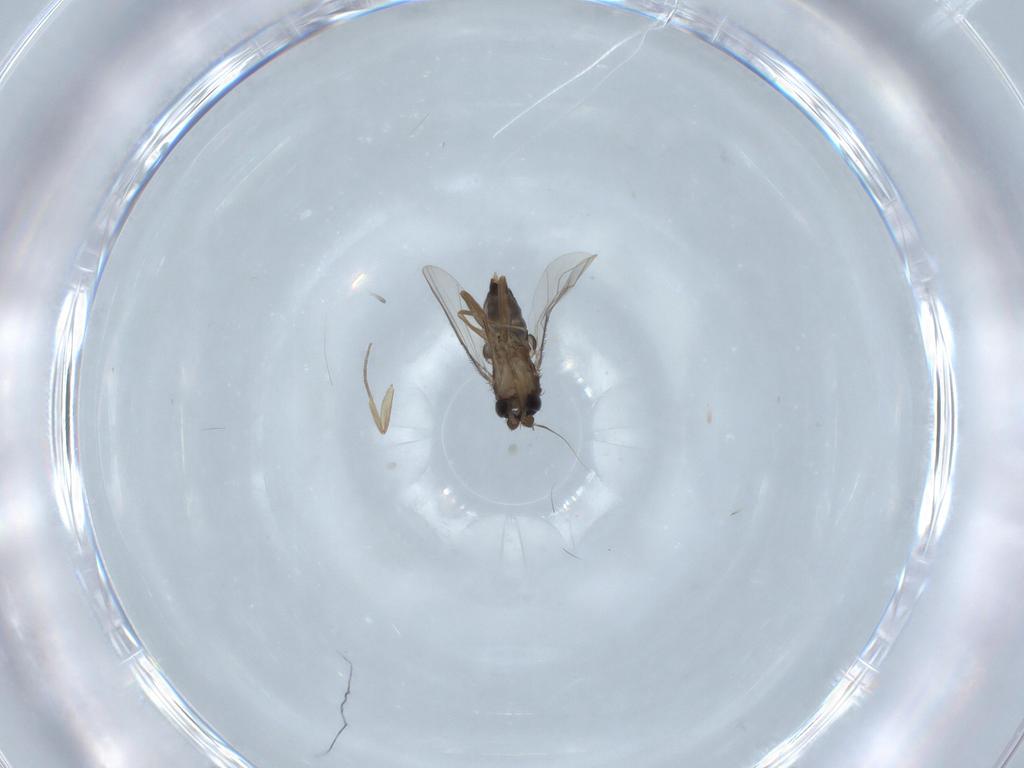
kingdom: Animalia
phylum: Arthropoda
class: Insecta
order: Diptera
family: Phoridae
